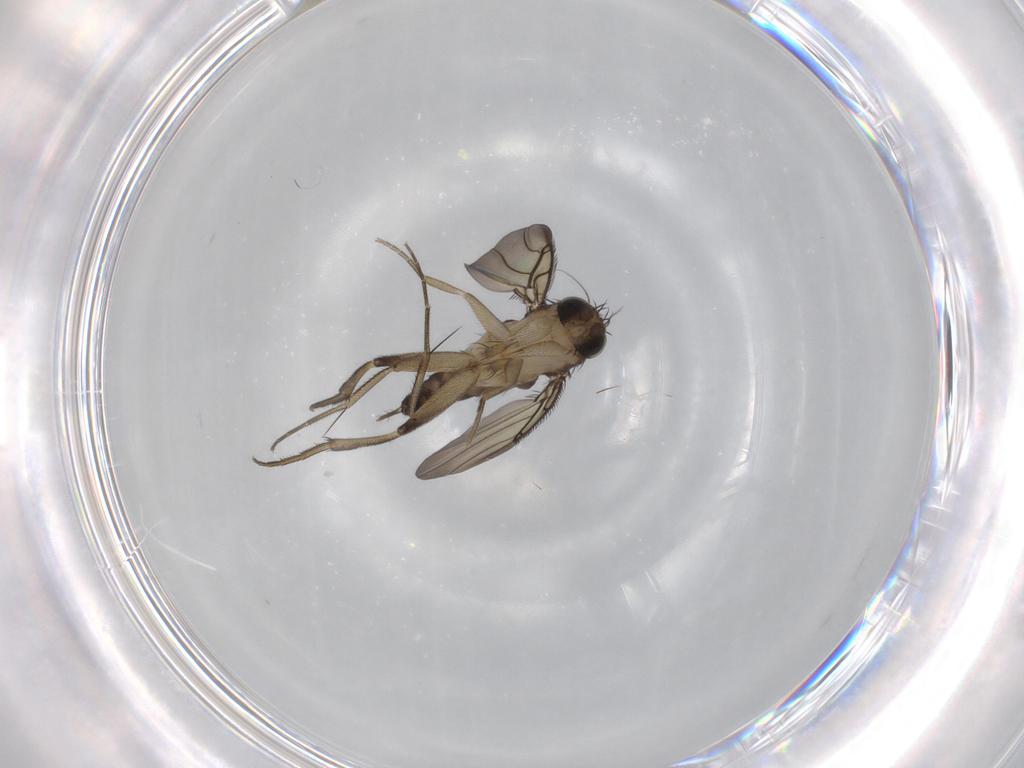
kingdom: Animalia
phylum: Arthropoda
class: Insecta
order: Diptera
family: Phoridae
